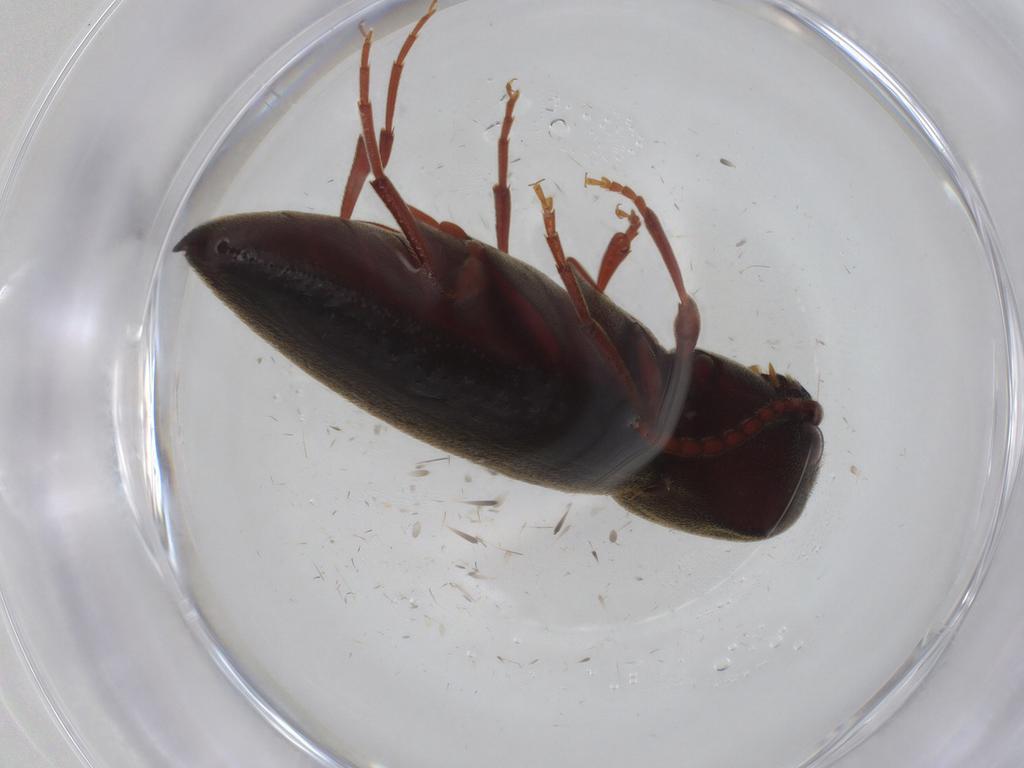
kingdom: Animalia
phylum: Arthropoda
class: Insecta
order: Coleoptera
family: Eucnemidae
